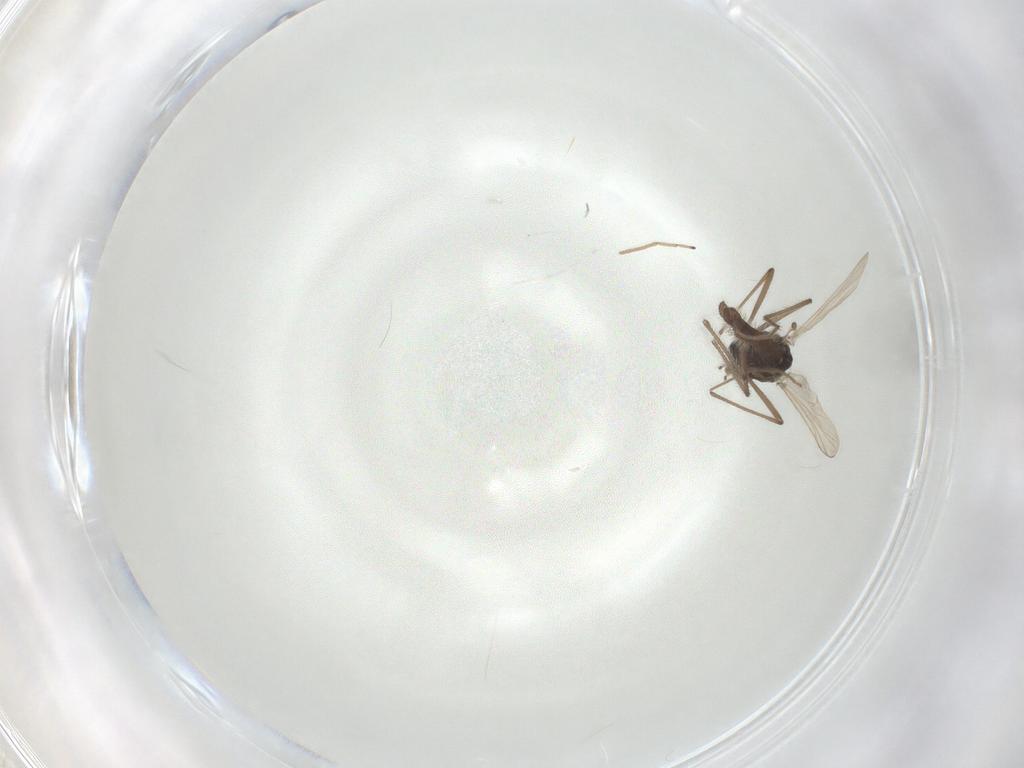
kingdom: Animalia
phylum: Arthropoda
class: Insecta
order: Diptera
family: Chironomidae
